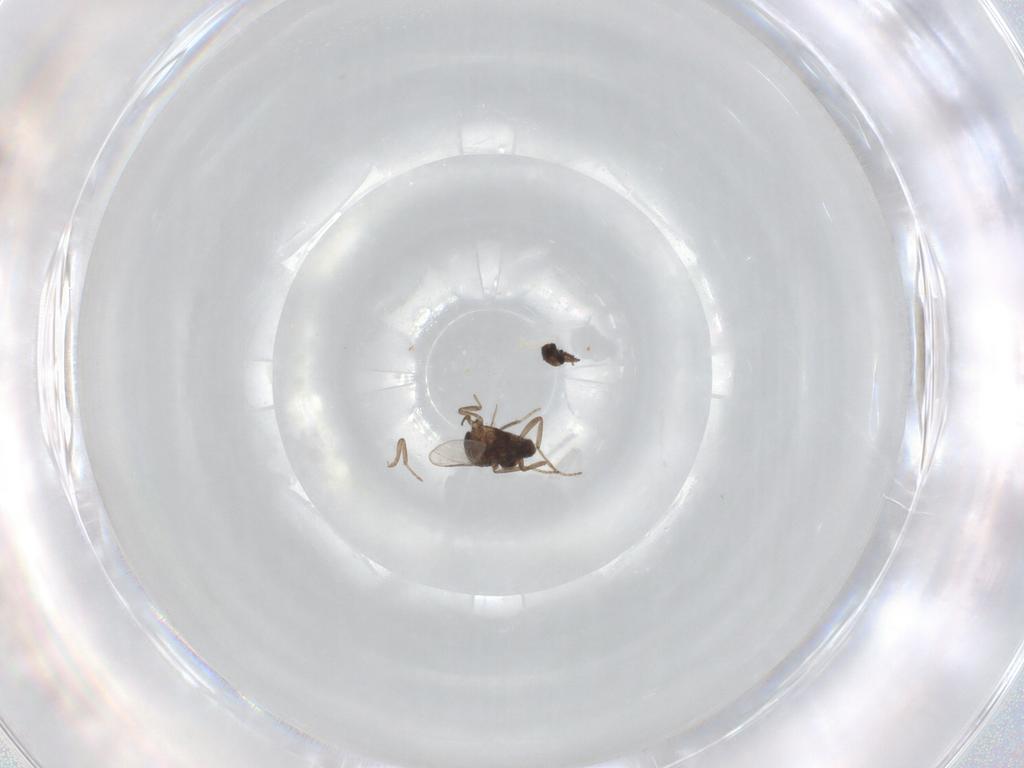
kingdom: Animalia
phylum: Arthropoda
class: Insecta
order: Diptera
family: Ceratopogonidae
